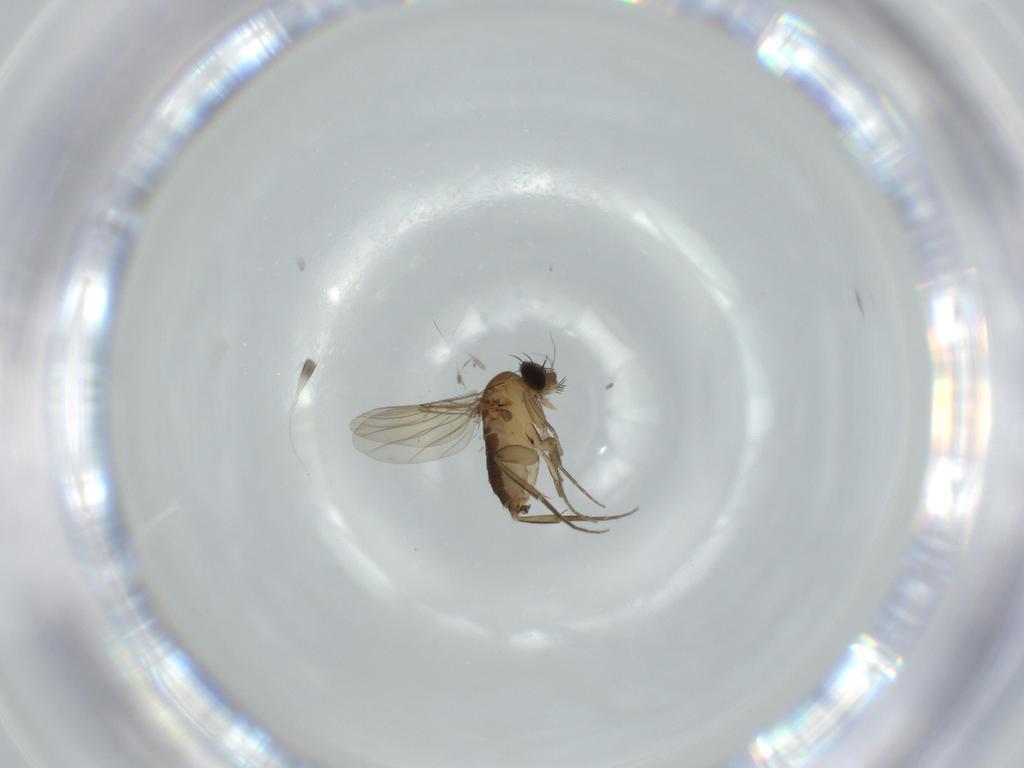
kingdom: Animalia
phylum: Arthropoda
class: Insecta
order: Diptera
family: Phoridae
